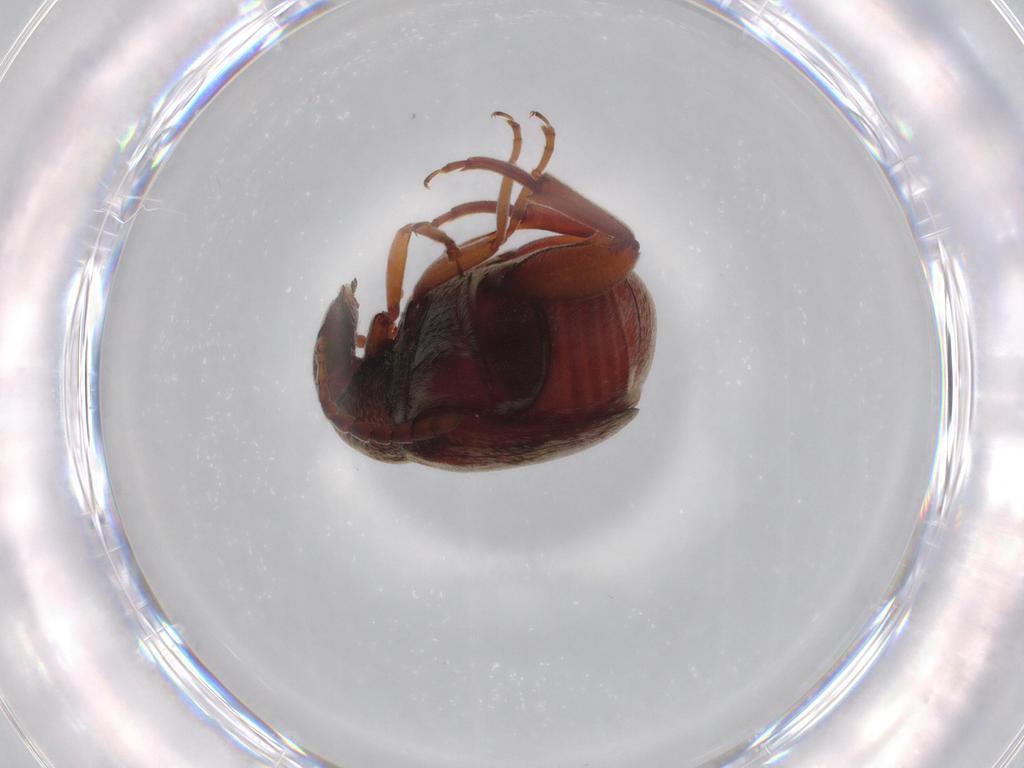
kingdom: Animalia
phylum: Arthropoda
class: Insecta
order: Coleoptera
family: Chrysomelidae
